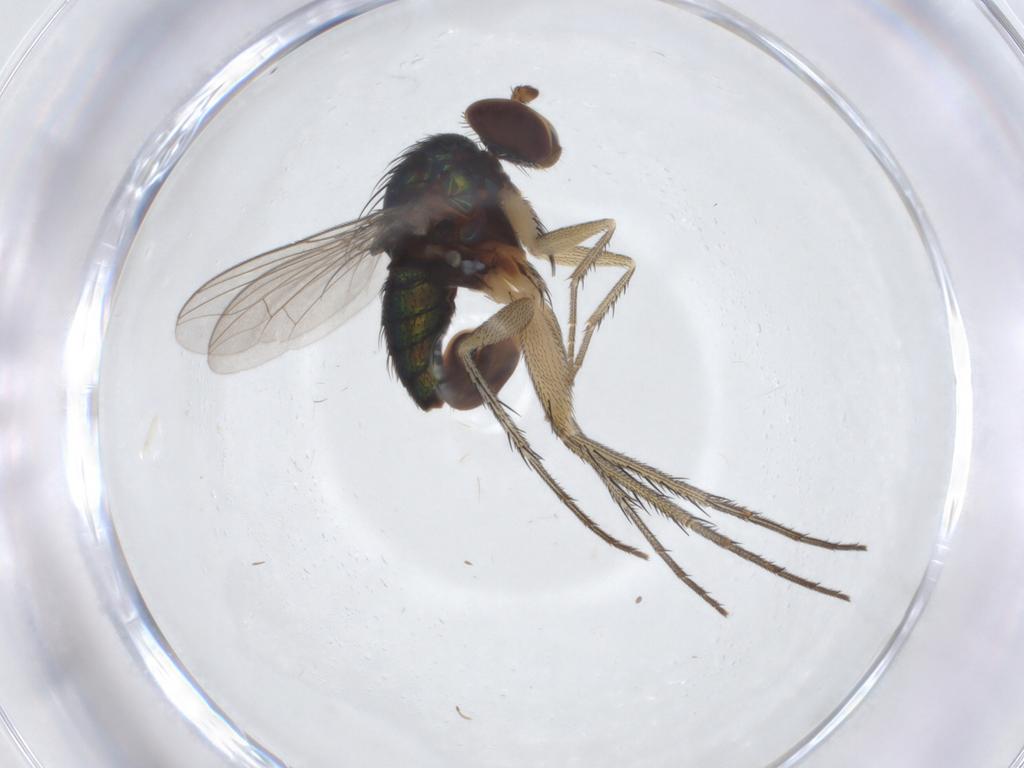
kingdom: Animalia
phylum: Arthropoda
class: Insecta
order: Diptera
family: Dolichopodidae
